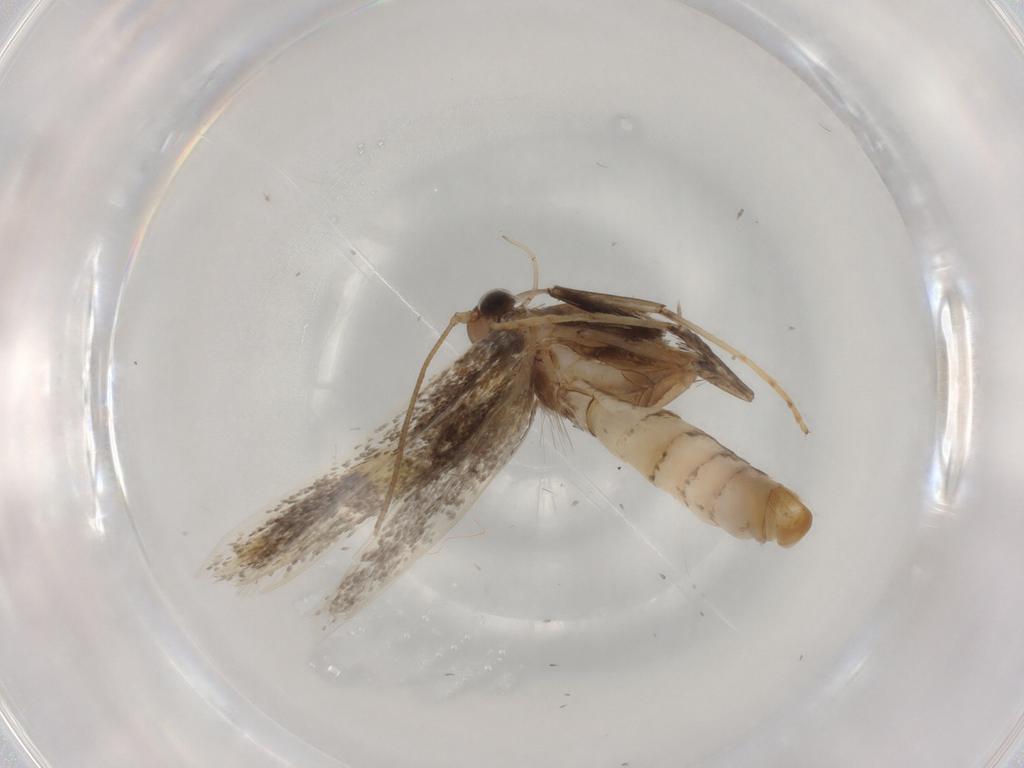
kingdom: Animalia
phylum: Arthropoda
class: Insecta
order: Lepidoptera
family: Gracillariidae
